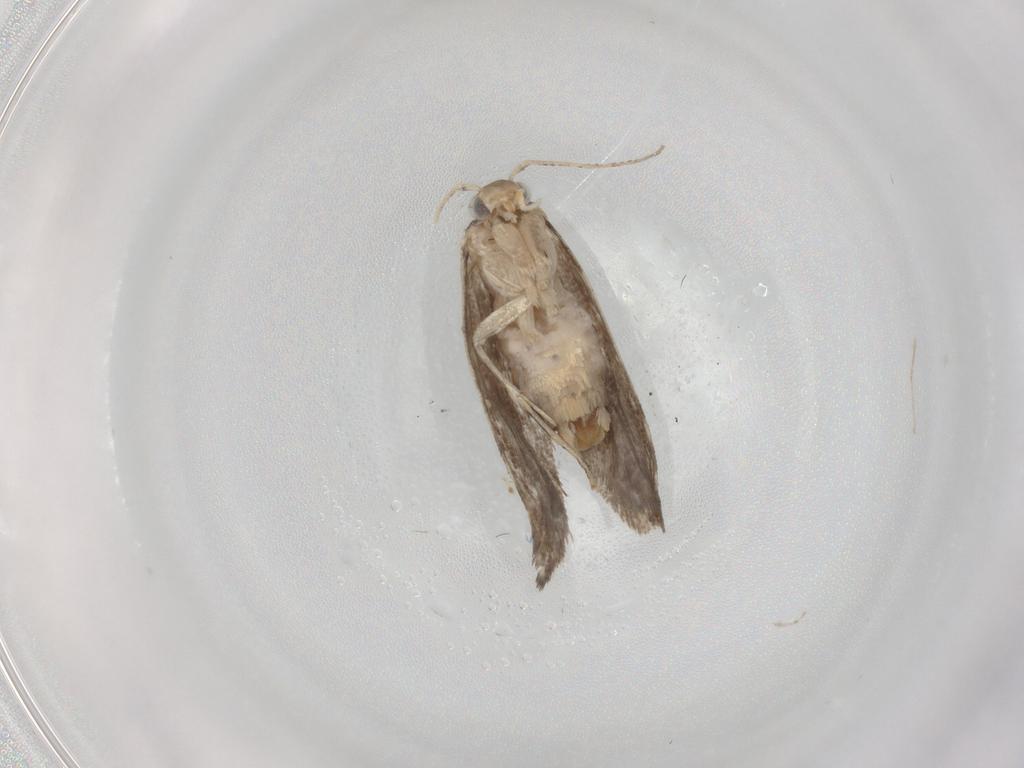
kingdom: Animalia
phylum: Arthropoda
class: Insecta
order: Lepidoptera
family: Tineidae
